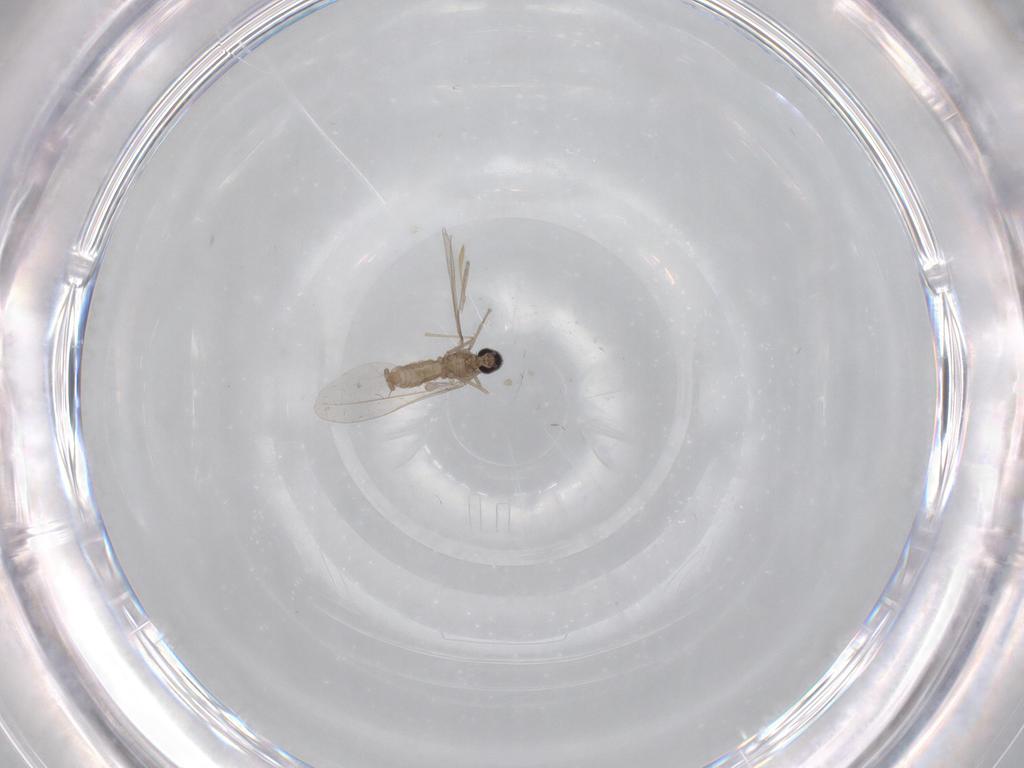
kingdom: Animalia
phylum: Arthropoda
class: Insecta
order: Diptera
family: Cecidomyiidae
